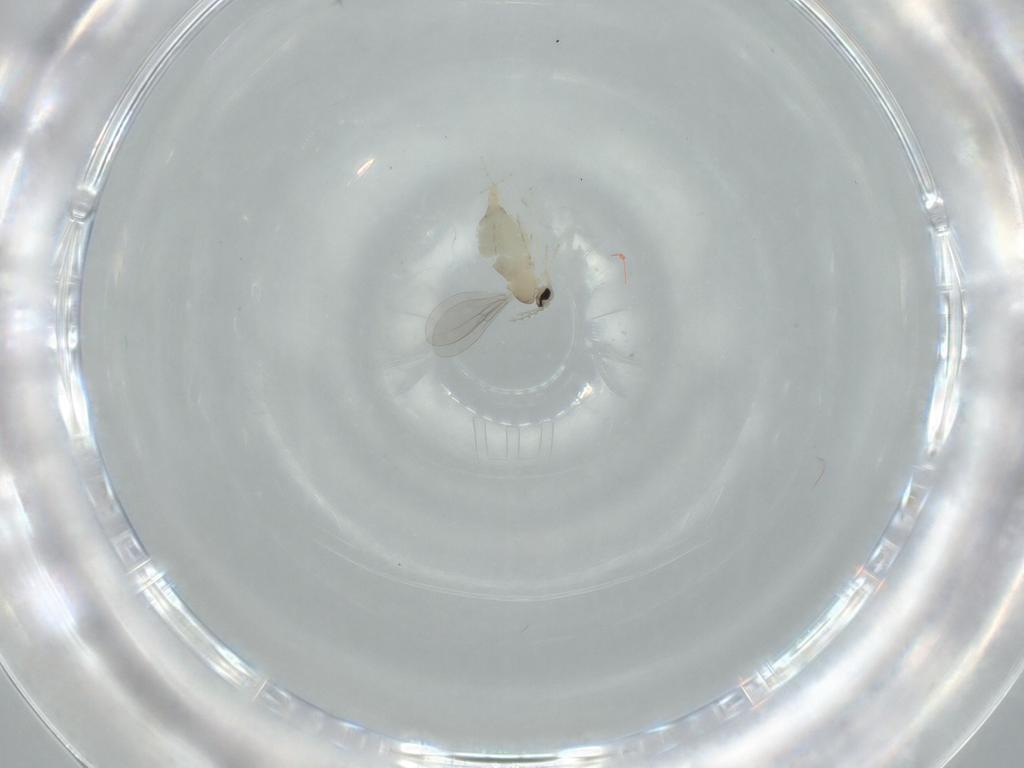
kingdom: Animalia
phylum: Arthropoda
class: Insecta
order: Diptera
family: Cecidomyiidae
